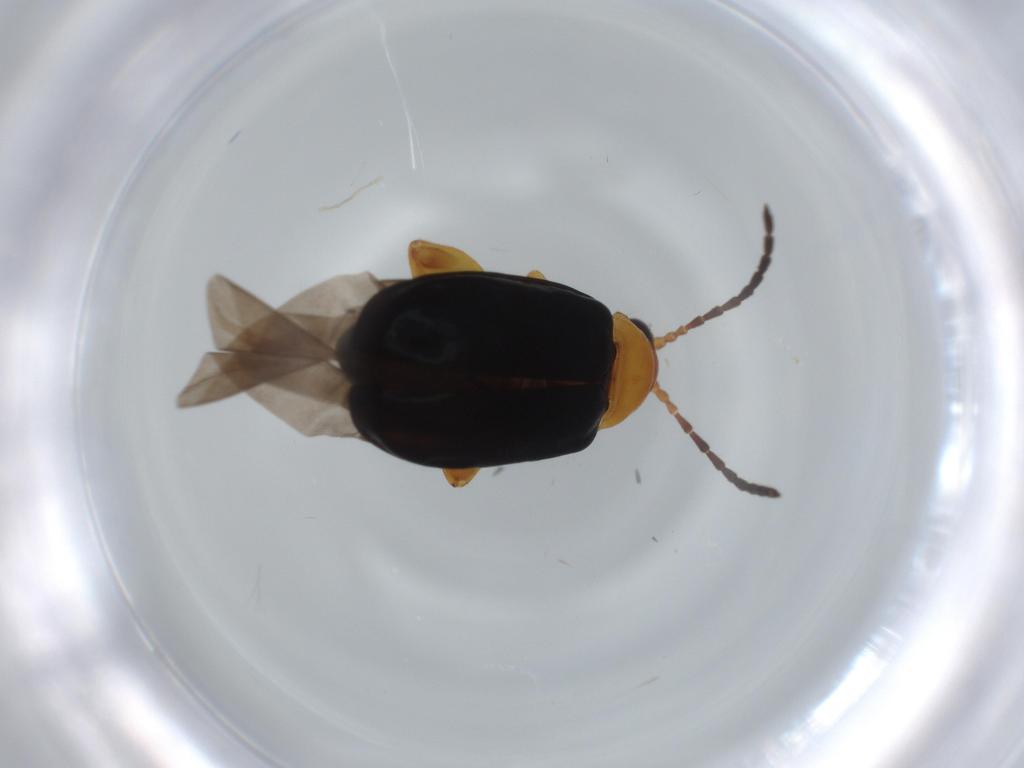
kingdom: Animalia
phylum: Arthropoda
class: Insecta
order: Coleoptera
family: Chrysomelidae
